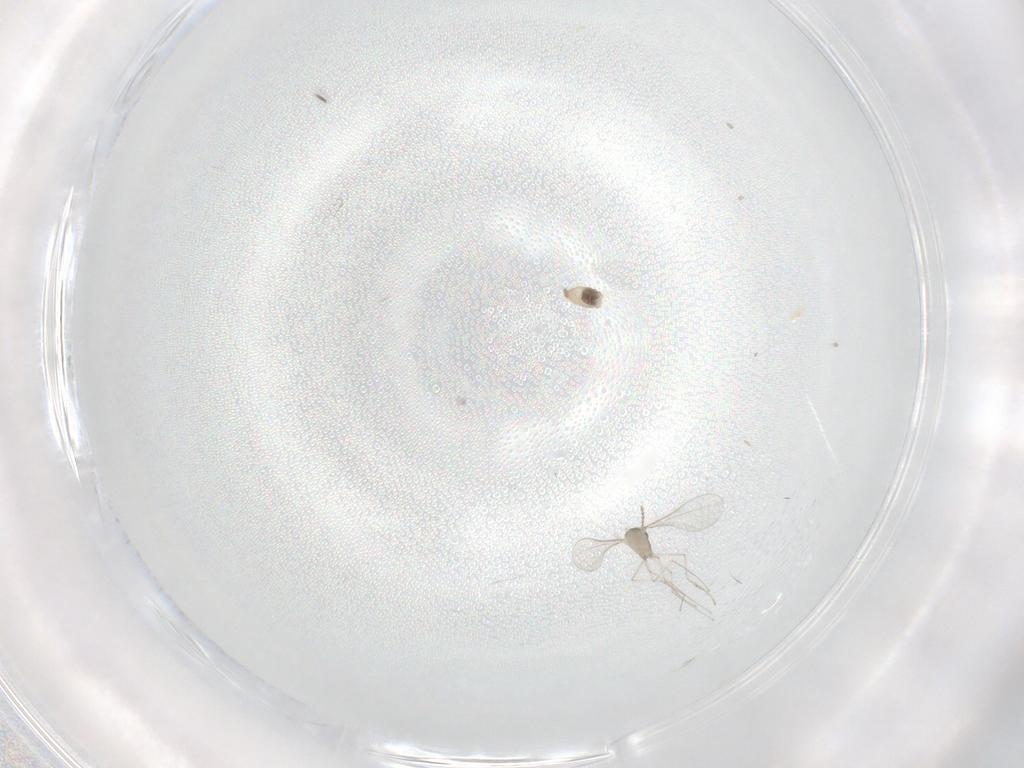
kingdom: Animalia
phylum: Arthropoda
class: Insecta
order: Diptera
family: Cecidomyiidae
